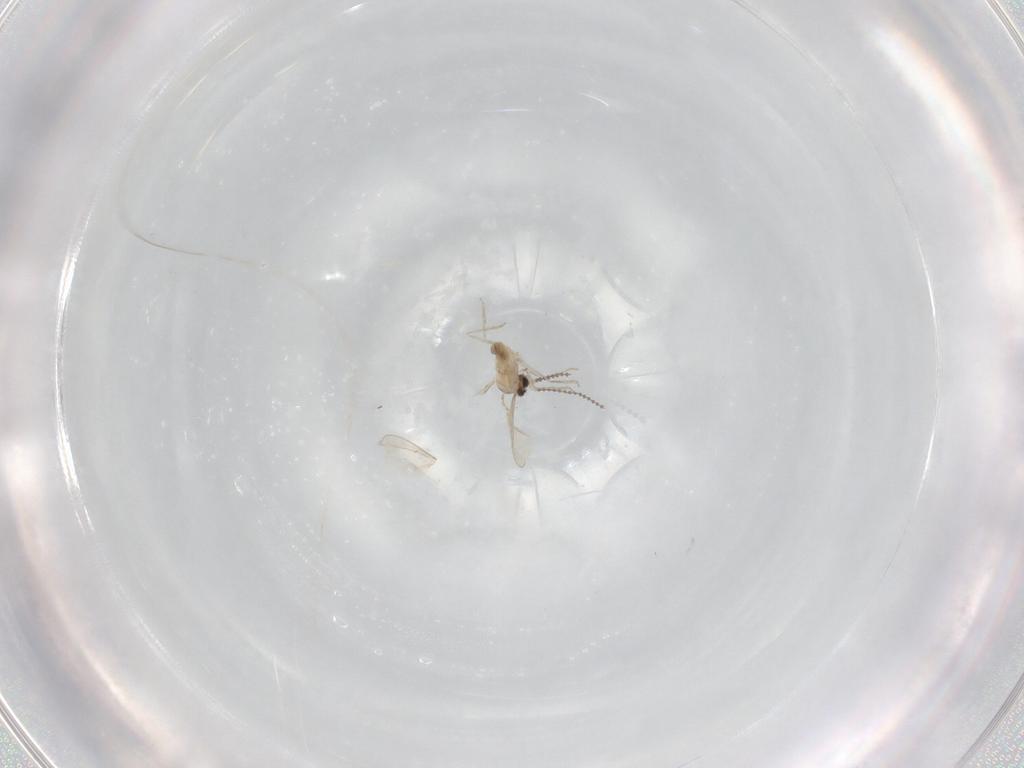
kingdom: Animalia
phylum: Arthropoda
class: Insecta
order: Diptera
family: Cecidomyiidae
